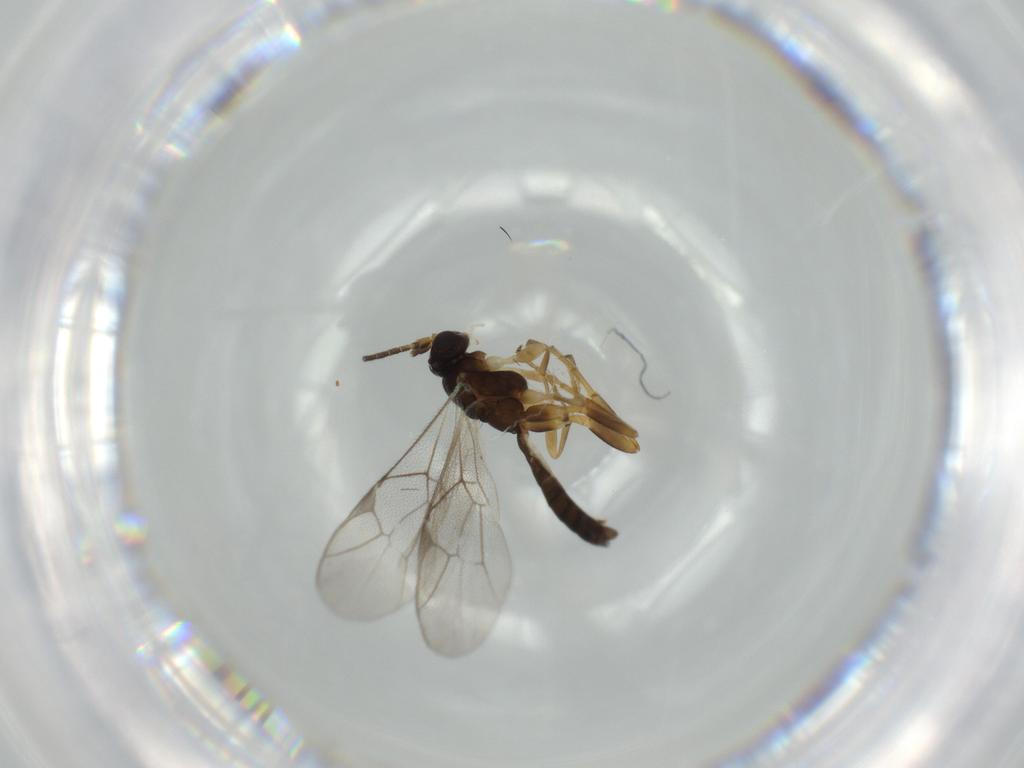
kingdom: Animalia
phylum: Arthropoda
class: Insecta
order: Hymenoptera
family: Ichneumonidae
